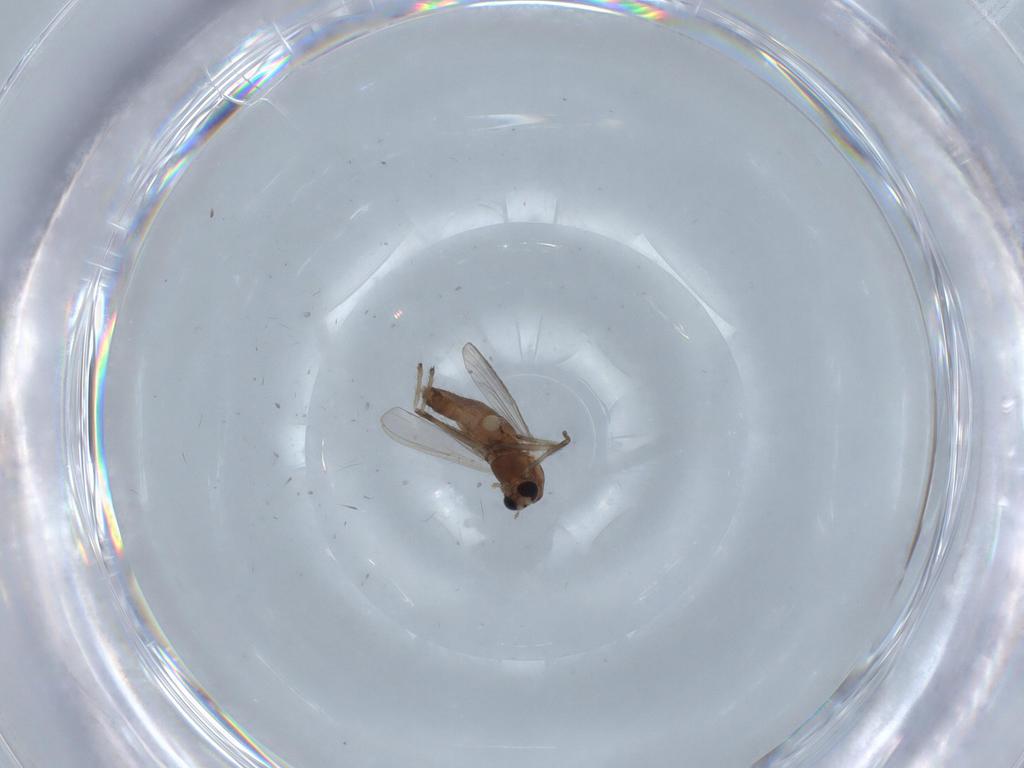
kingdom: Animalia
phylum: Arthropoda
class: Insecta
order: Diptera
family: Chironomidae
